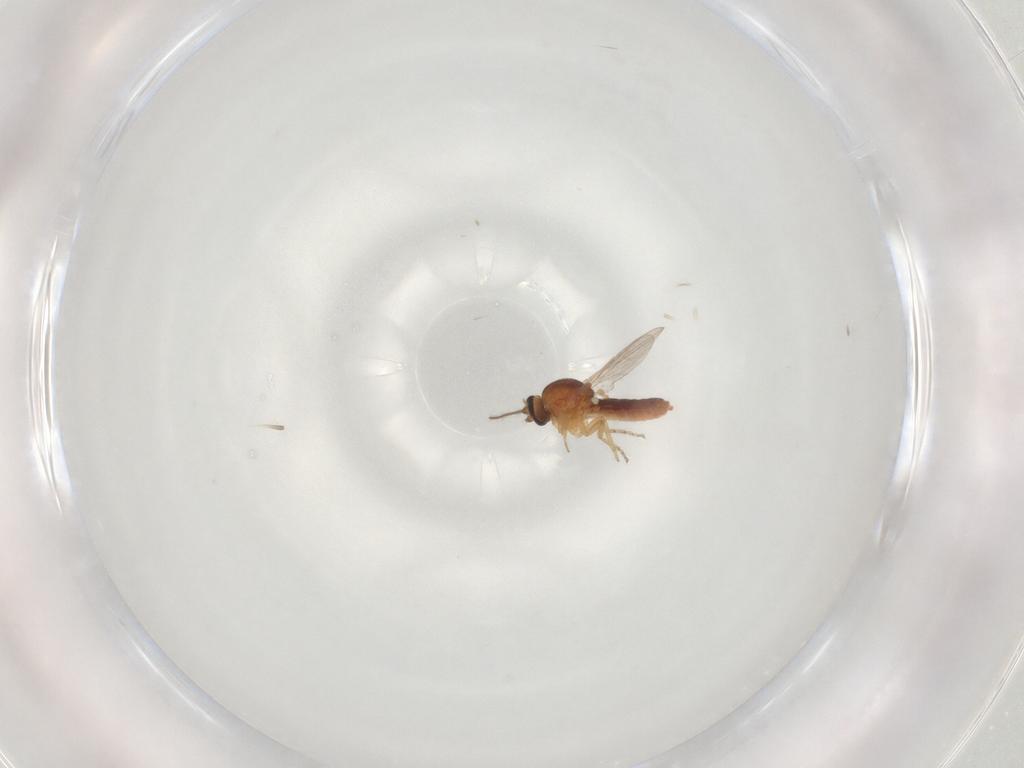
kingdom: Animalia
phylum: Arthropoda
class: Insecta
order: Diptera
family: Ceratopogonidae
